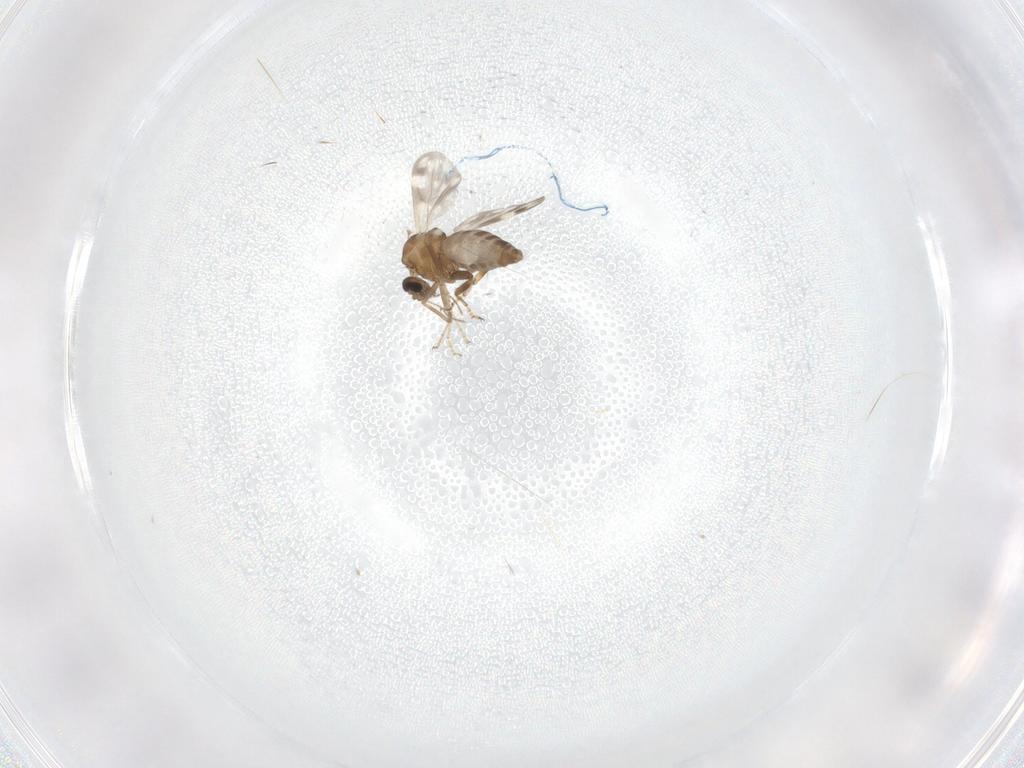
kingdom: Animalia
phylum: Arthropoda
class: Insecta
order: Diptera
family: Ceratopogonidae
